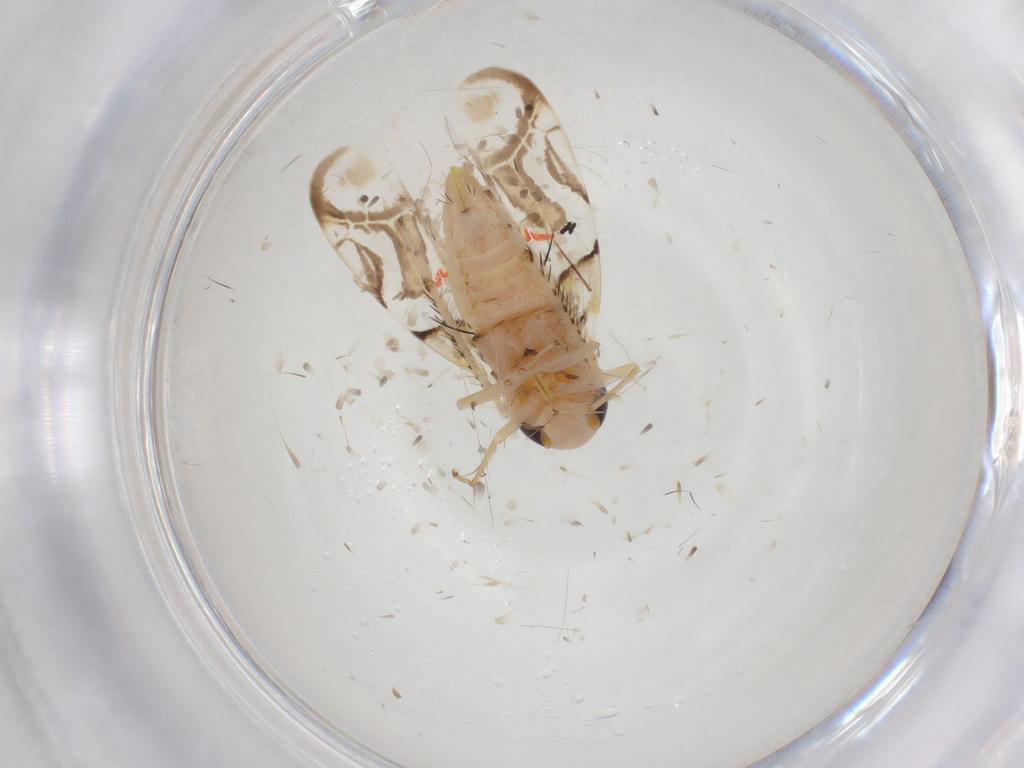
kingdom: Animalia
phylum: Arthropoda
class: Insecta
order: Hemiptera
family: Cicadellidae
